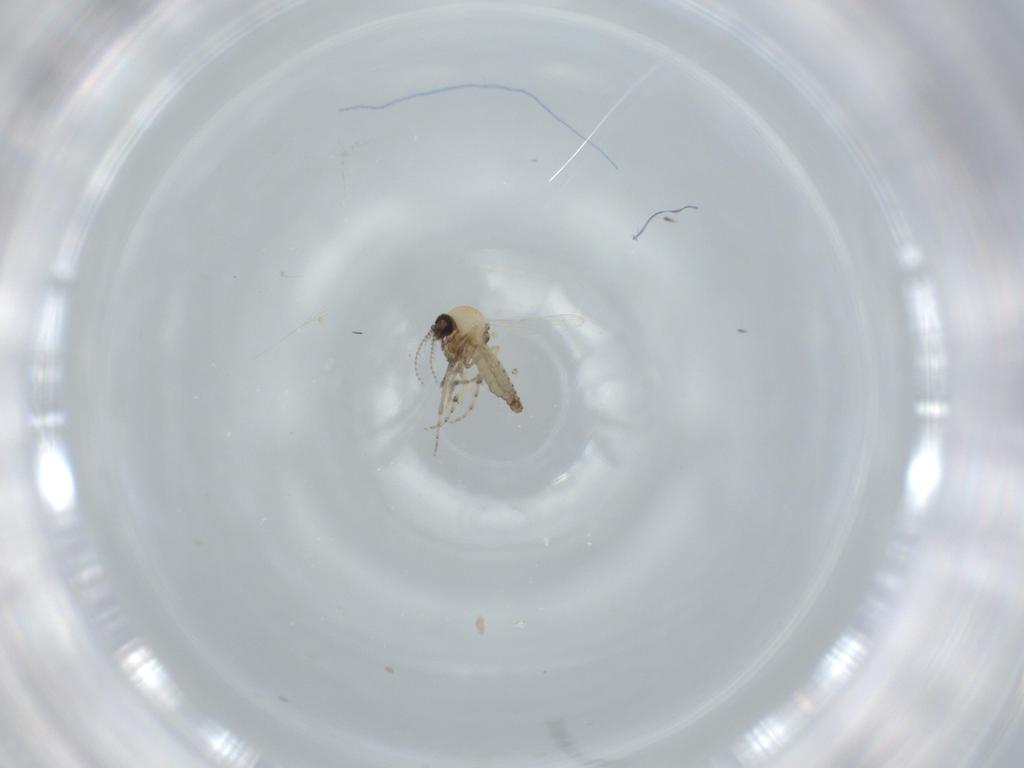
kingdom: Animalia
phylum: Arthropoda
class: Insecta
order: Diptera
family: Ceratopogonidae
